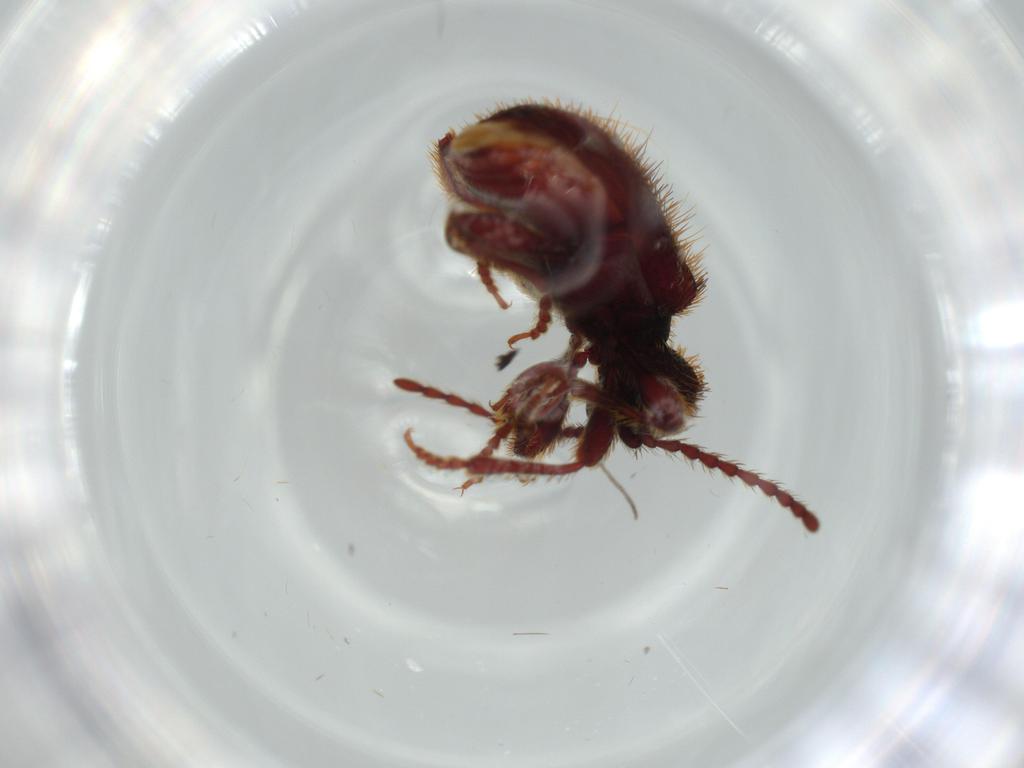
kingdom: Animalia
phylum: Arthropoda
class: Insecta
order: Coleoptera
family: Ptinidae
